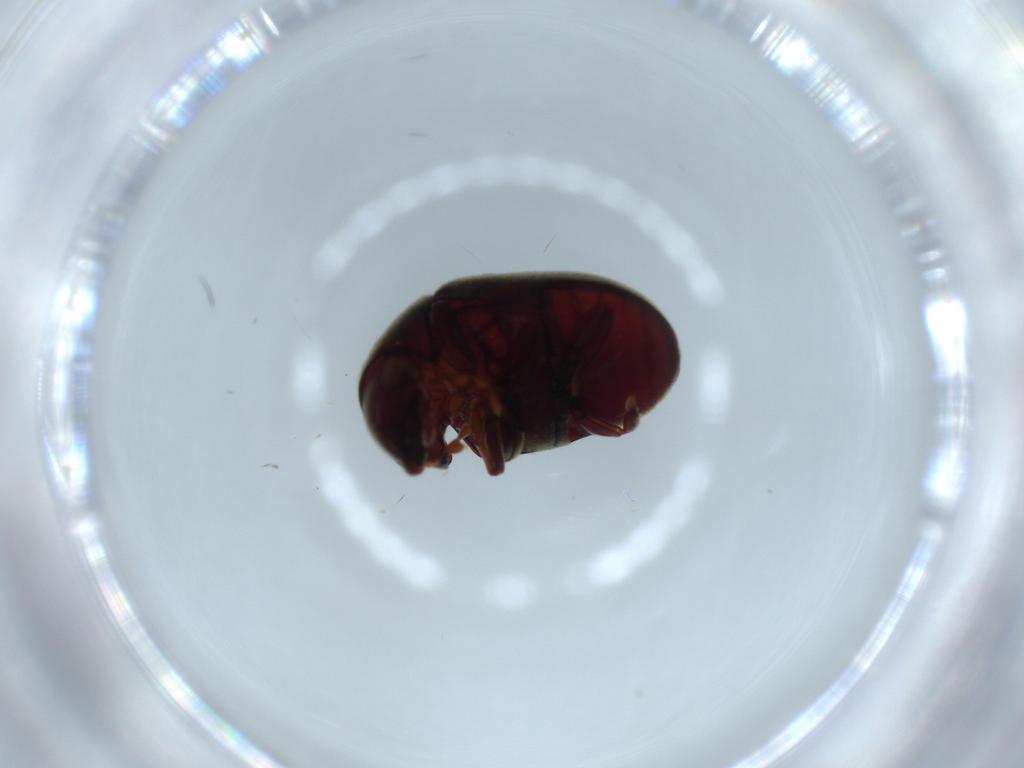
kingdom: Animalia
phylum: Arthropoda
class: Insecta
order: Coleoptera
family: Ptinidae
